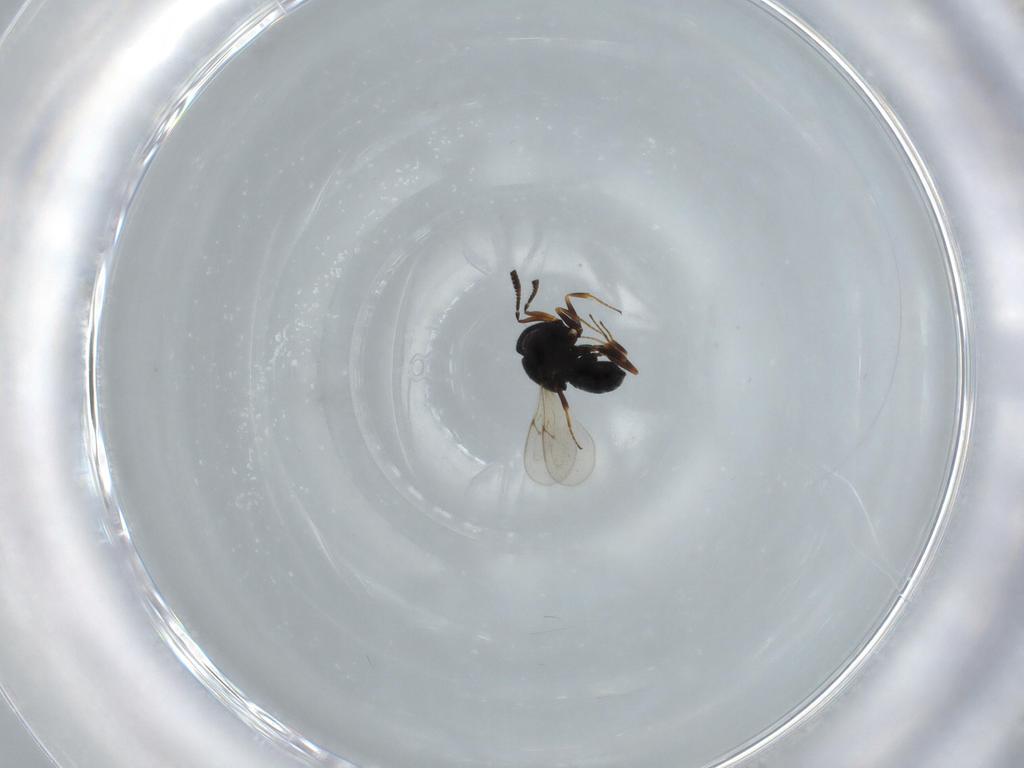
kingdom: Animalia
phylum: Arthropoda
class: Insecta
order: Hymenoptera
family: Scelionidae
